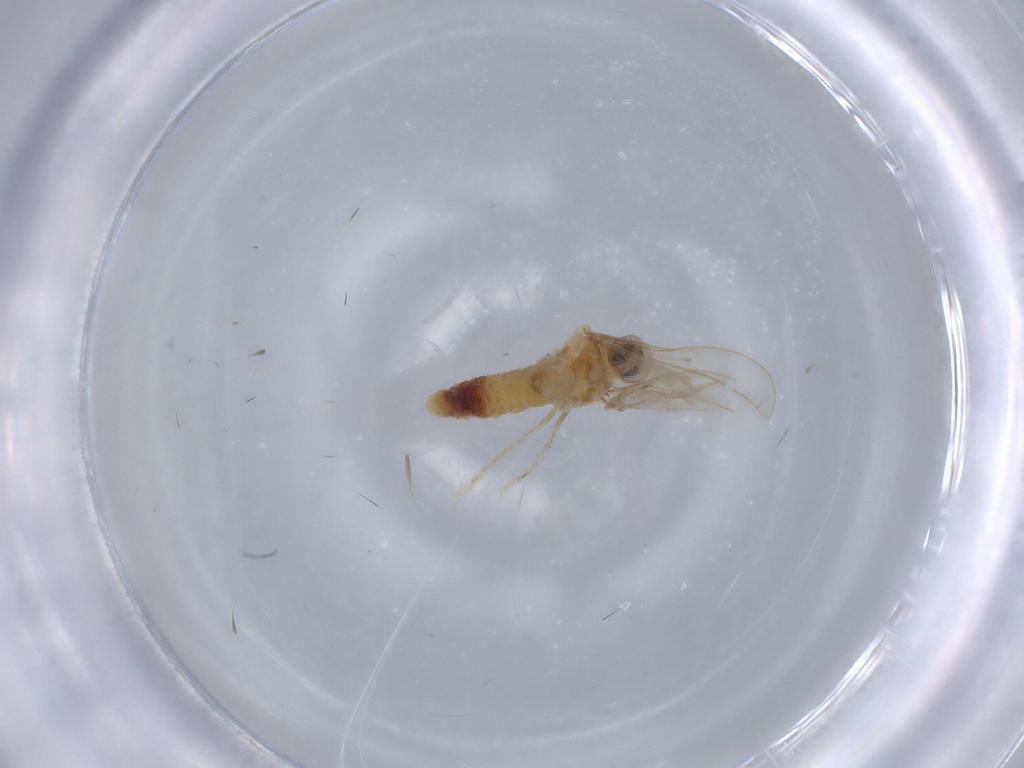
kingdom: Animalia
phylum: Arthropoda
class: Insecta
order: Diptera
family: Cecidomyiidae
